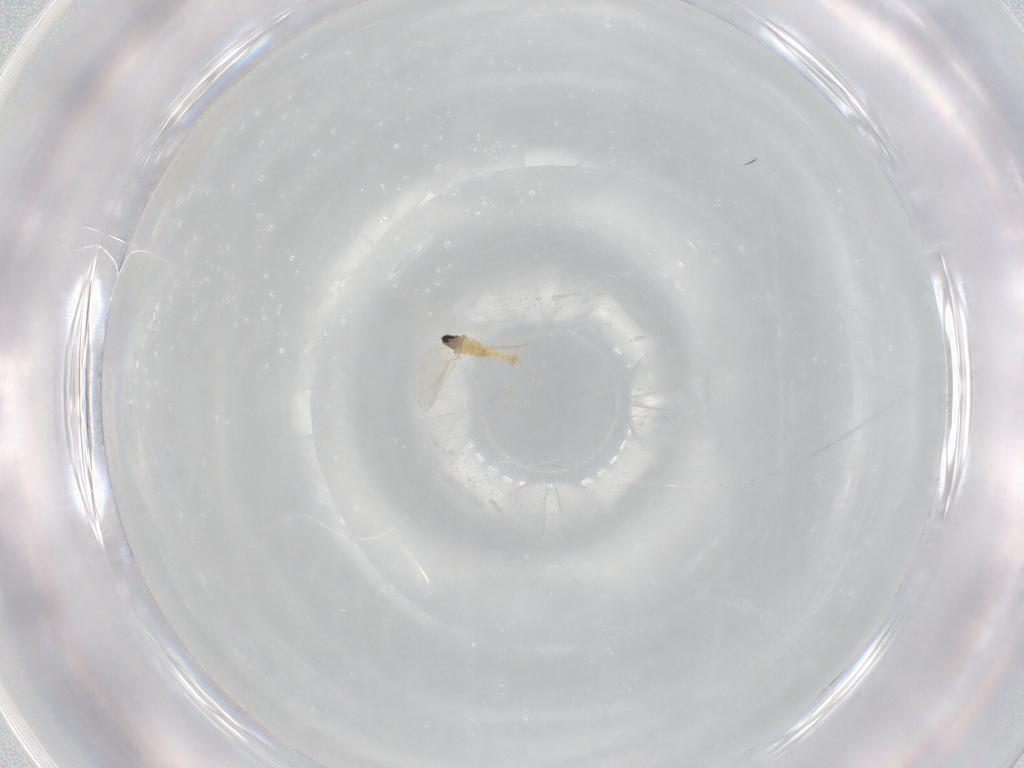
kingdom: Animalia
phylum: Arthropoda
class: Insecta
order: Diptera
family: Cecidomyiidae
